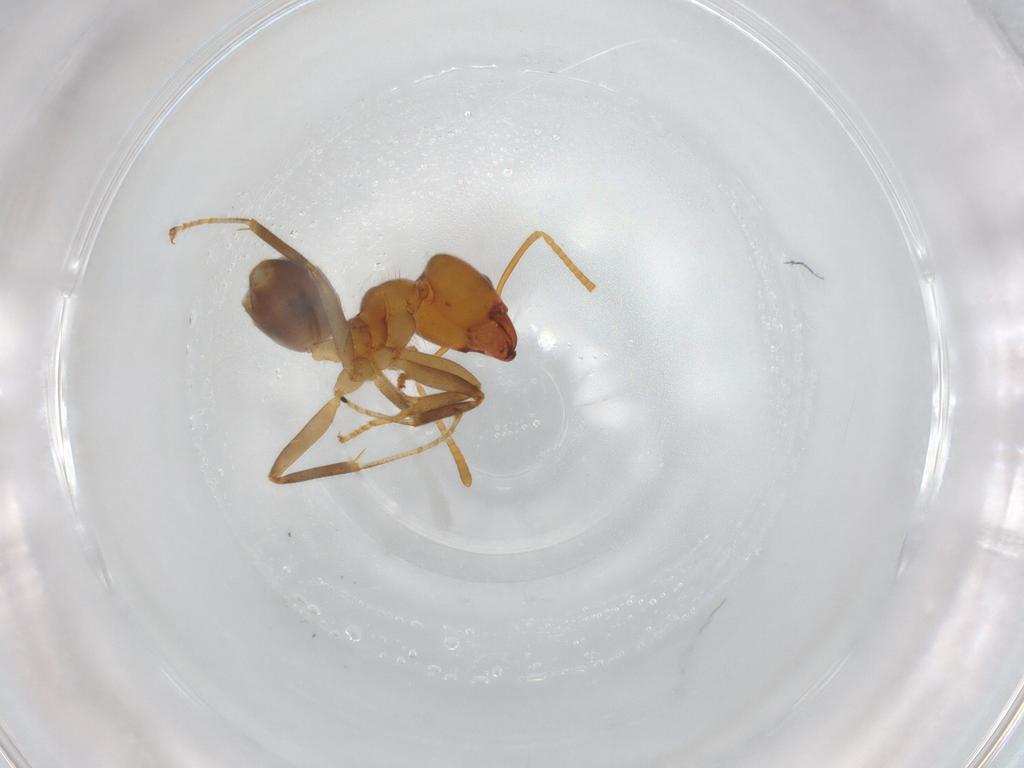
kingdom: Animalia
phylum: Arthropoda
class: Insecta
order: Hymenoptera
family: Formicidae
